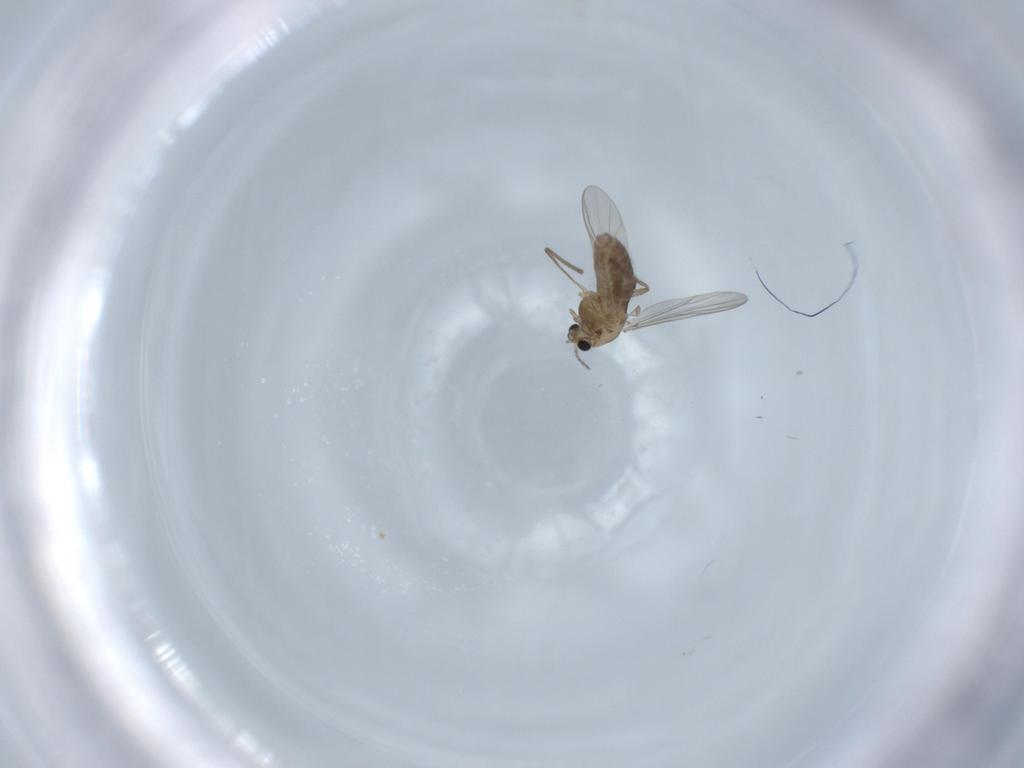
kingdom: Animalia
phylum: Arthropoda
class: Insecta
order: Diptera
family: Chironomidae
